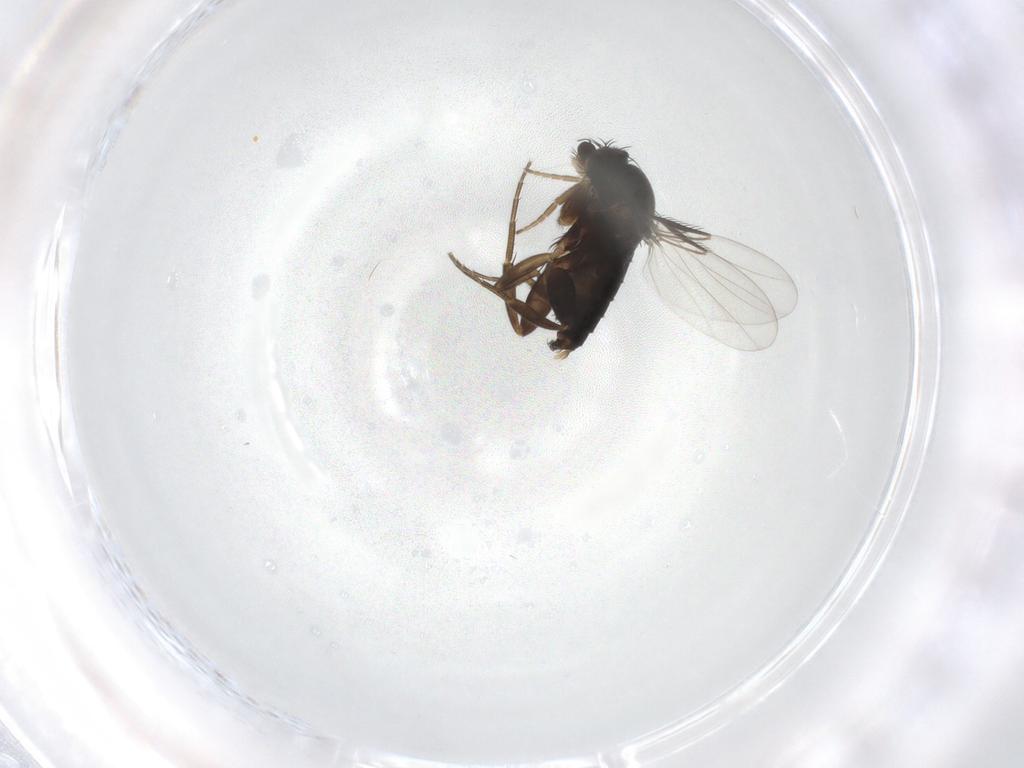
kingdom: Animalia
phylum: Arthropoda
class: Insecta
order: Diptera
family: Phoridae
